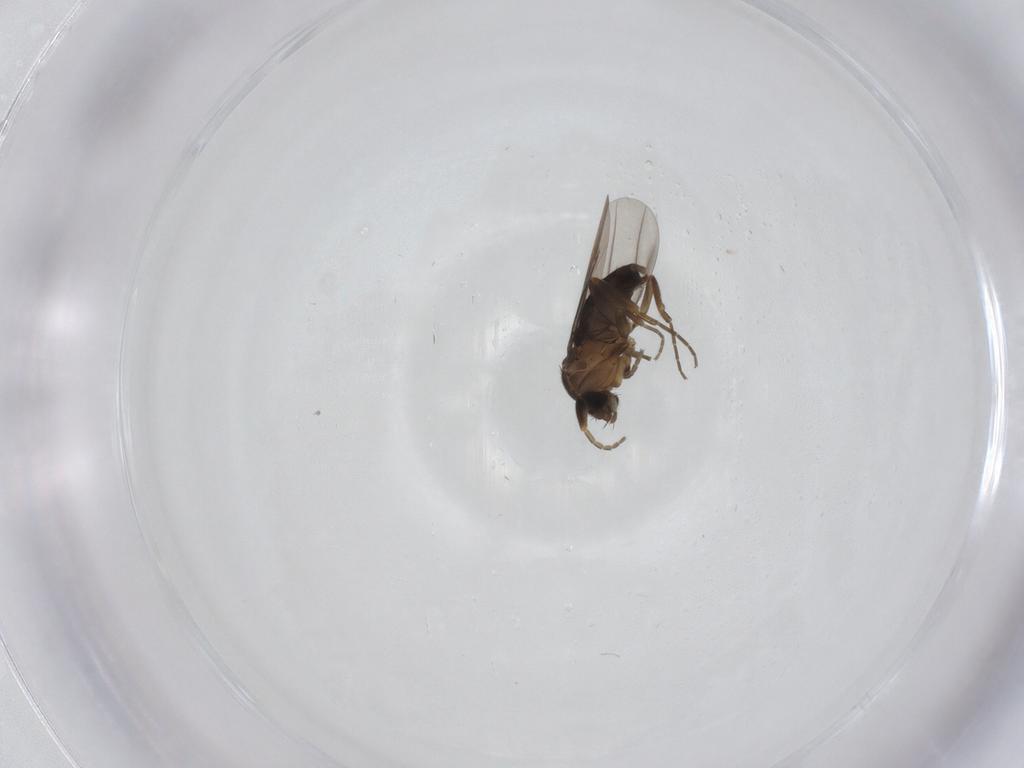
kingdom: Animalia
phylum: Arthropoda
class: Insecta
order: Diptera
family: Phoridae
